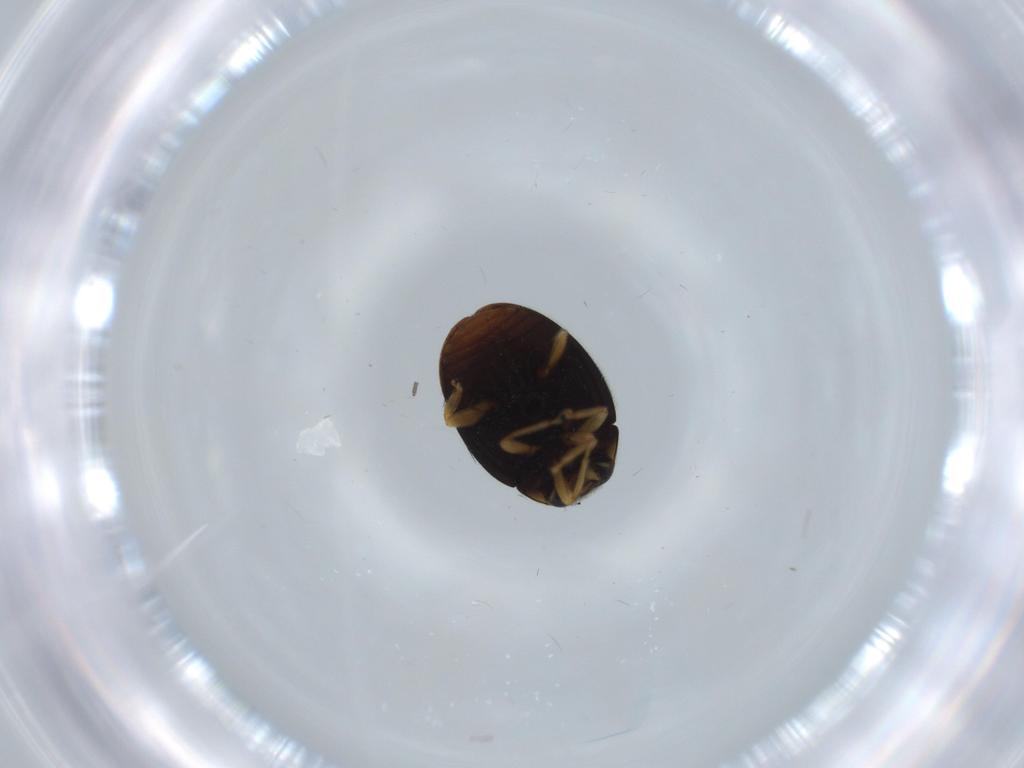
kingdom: Animalia
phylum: Arthropoda
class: Insecta
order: Coleoptera
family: Coccinellidae
